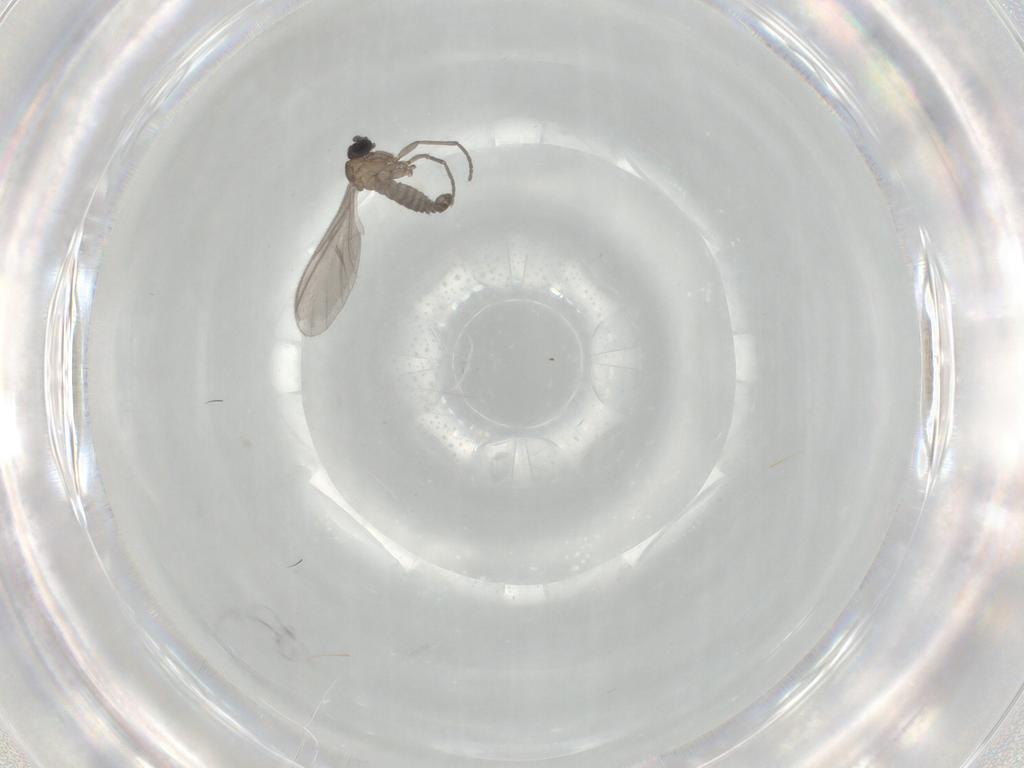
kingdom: Animalia
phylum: Arthropoda
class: Insecta
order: Diptera
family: Sciaridae
